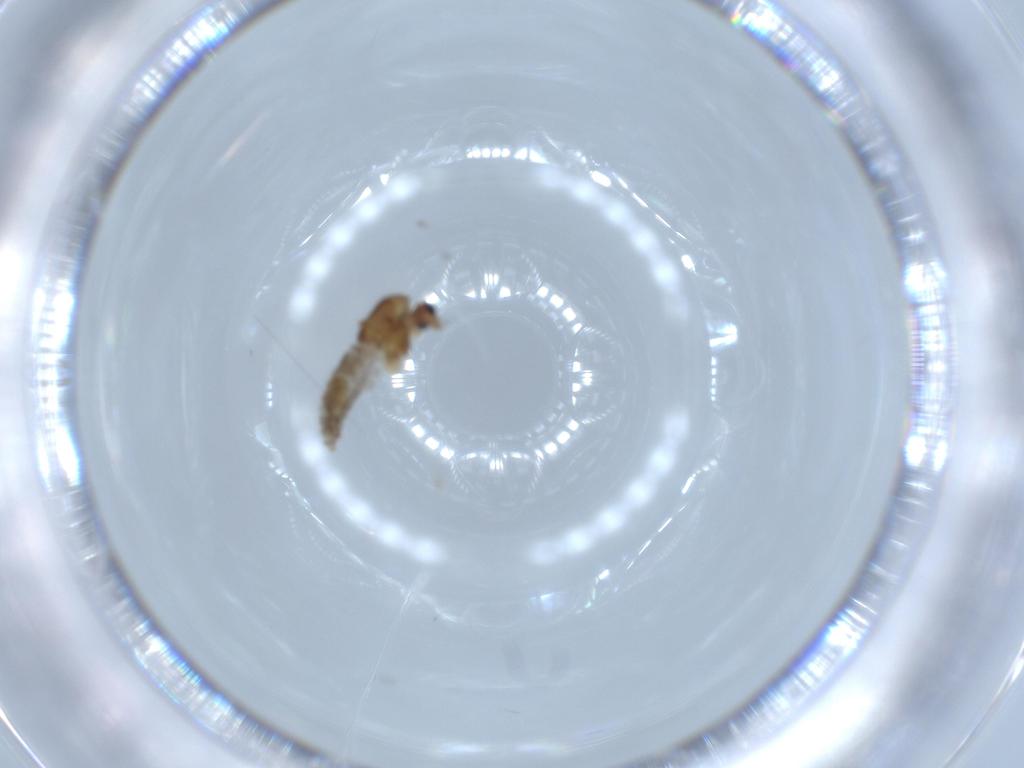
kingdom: Animalia
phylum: Arthropoda
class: Insecta
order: Diptera
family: Chironomidae
